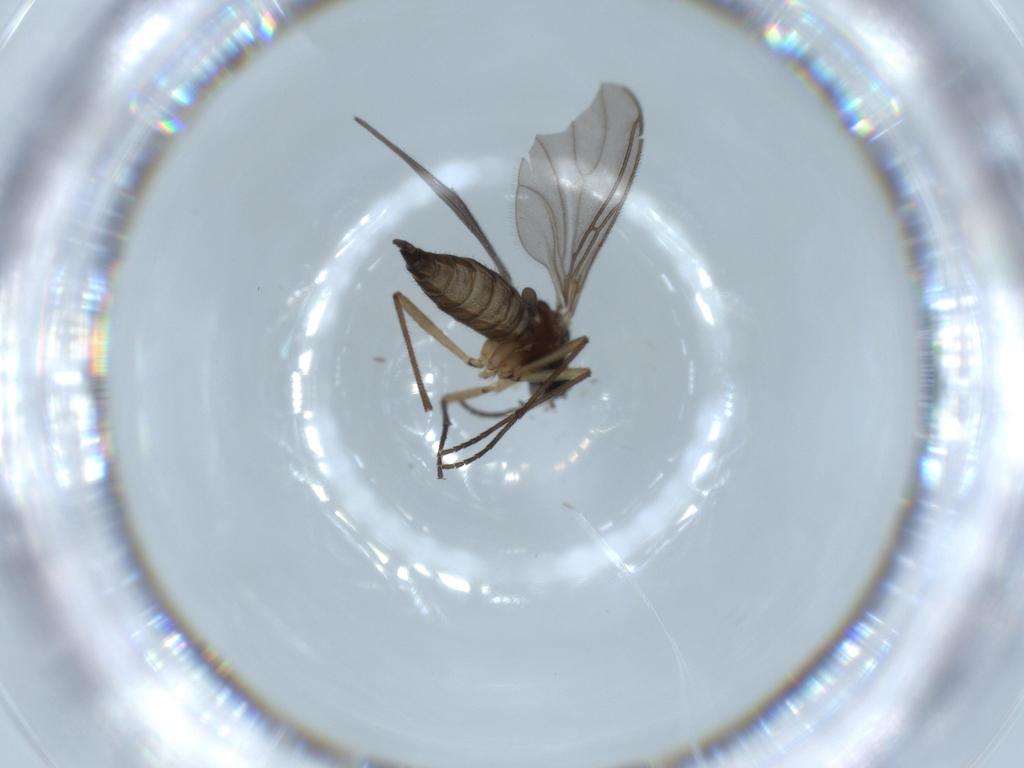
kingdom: Animalia
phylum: Arthropoda
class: Insecta
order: Diptera
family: Sciaridae
